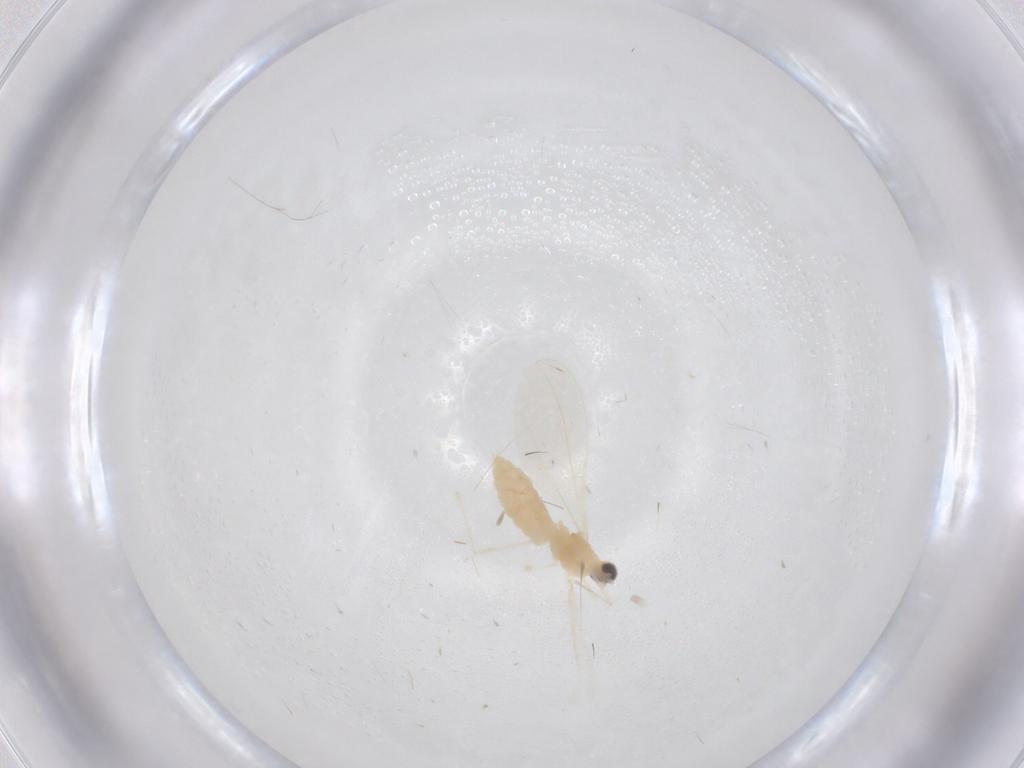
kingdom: Animalia
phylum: Arthropoda
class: Insecta
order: Diptera
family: Cecidomyiidae
